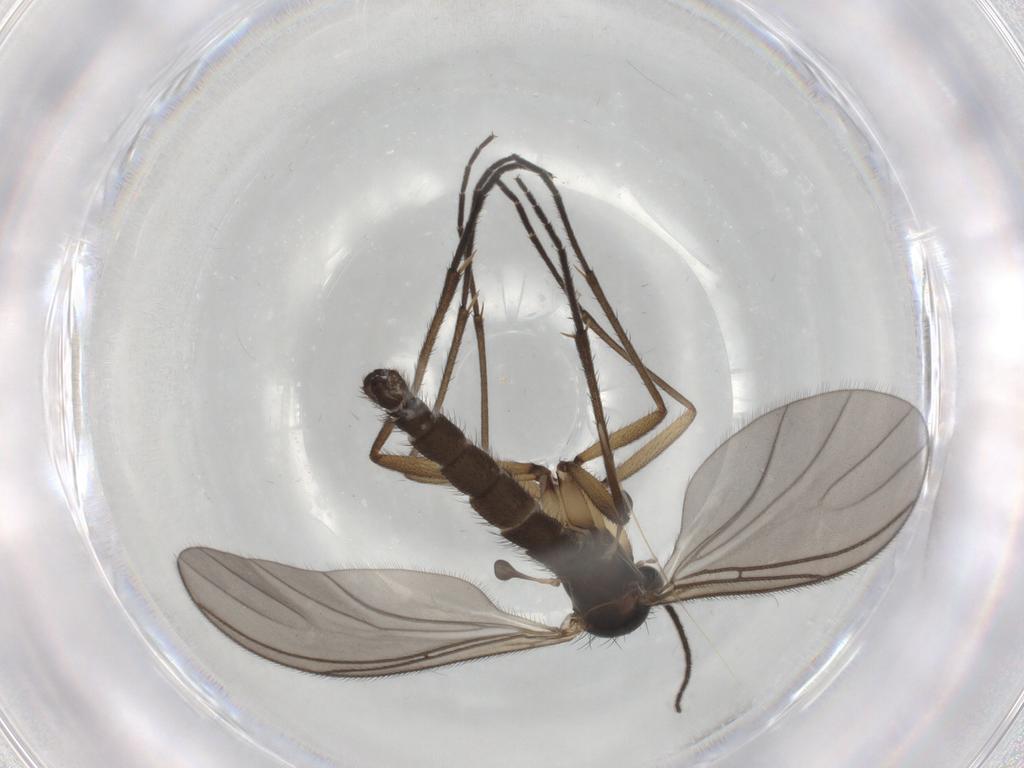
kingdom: Animalia
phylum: Arthropoda
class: Insecta
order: Diptera
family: Sciaridae
